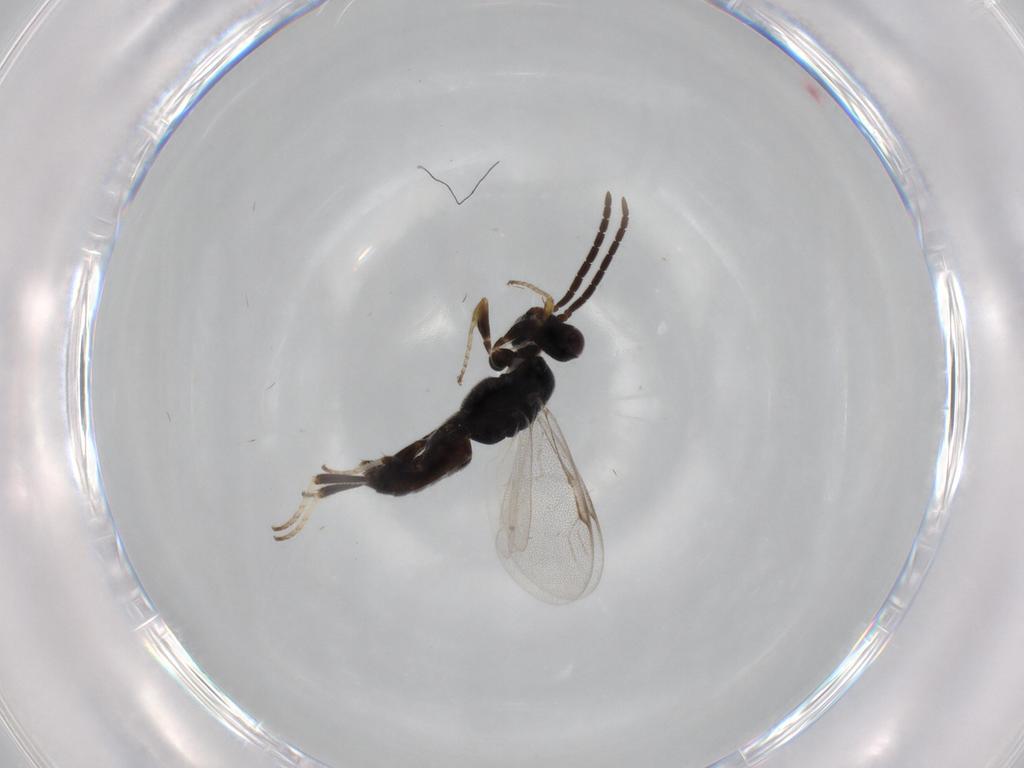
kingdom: Animalia
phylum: Arthropoda
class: Insecta
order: Hymenoptera
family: Dryinidae
